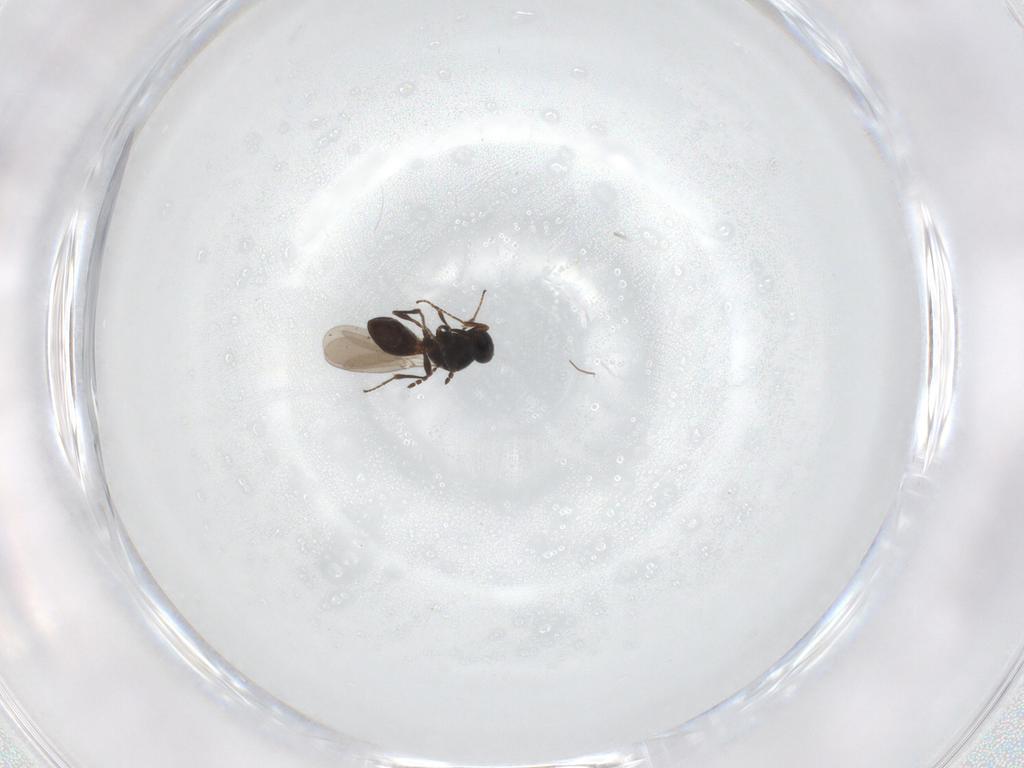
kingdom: Animalia
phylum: Arthropoda
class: Insecta
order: Hymenoptera
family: Platygastridae
